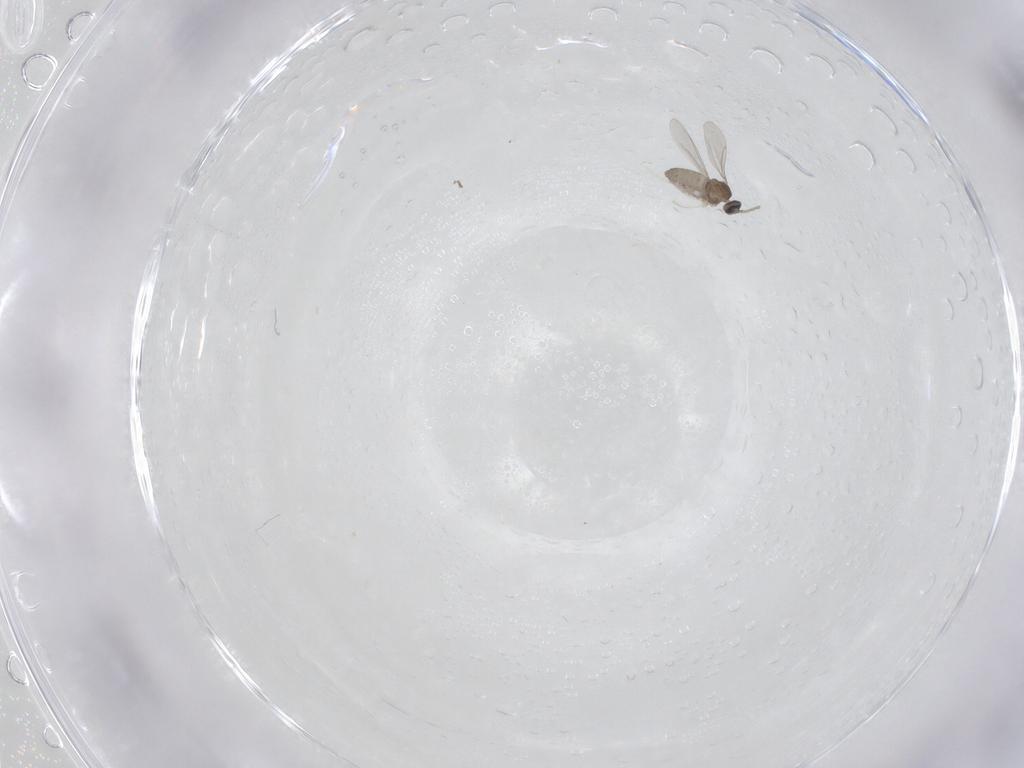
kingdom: Animalia
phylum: Arthropoda
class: Insecta
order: Diptera
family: Cecidomyiidae
